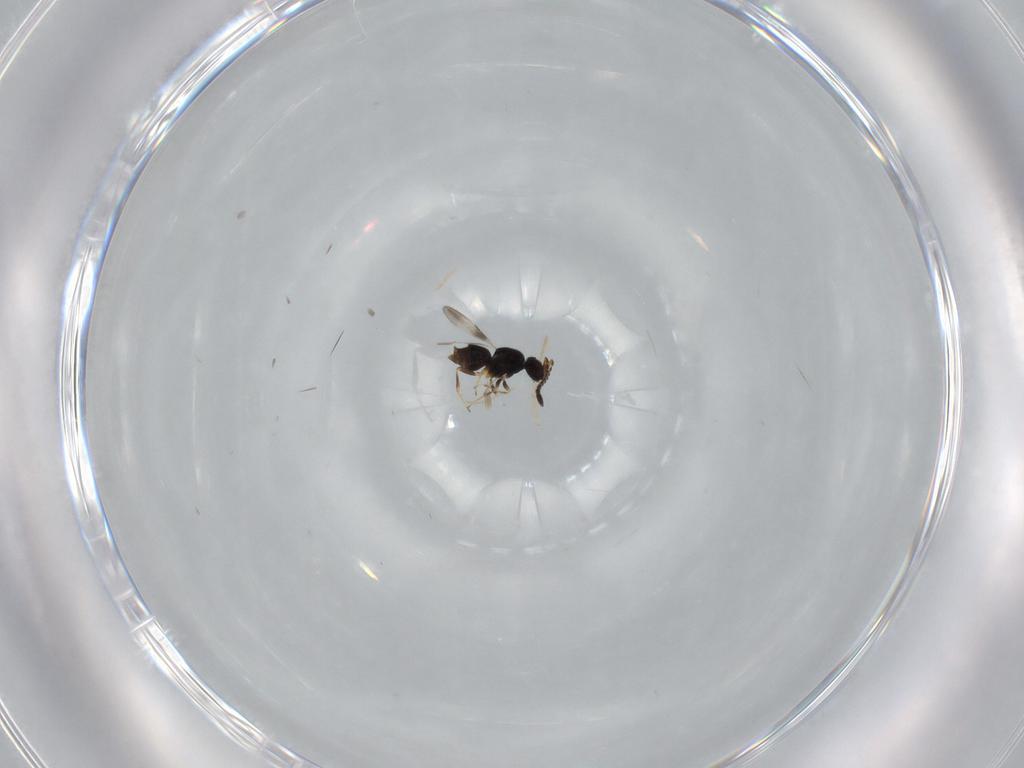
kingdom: Animalia
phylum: Arthropoda
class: Insecta
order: Hymenoptera
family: Ceraphronidae
